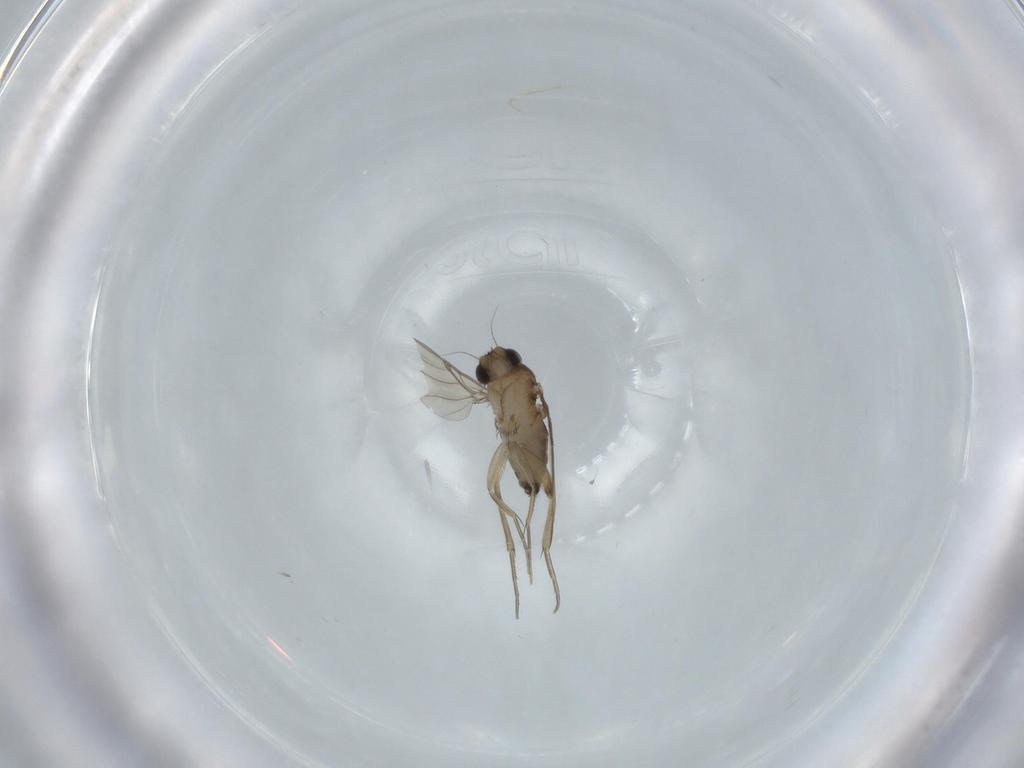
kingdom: Animalia
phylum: Arthropoda
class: Insecta
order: Diptera
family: Phoridae
